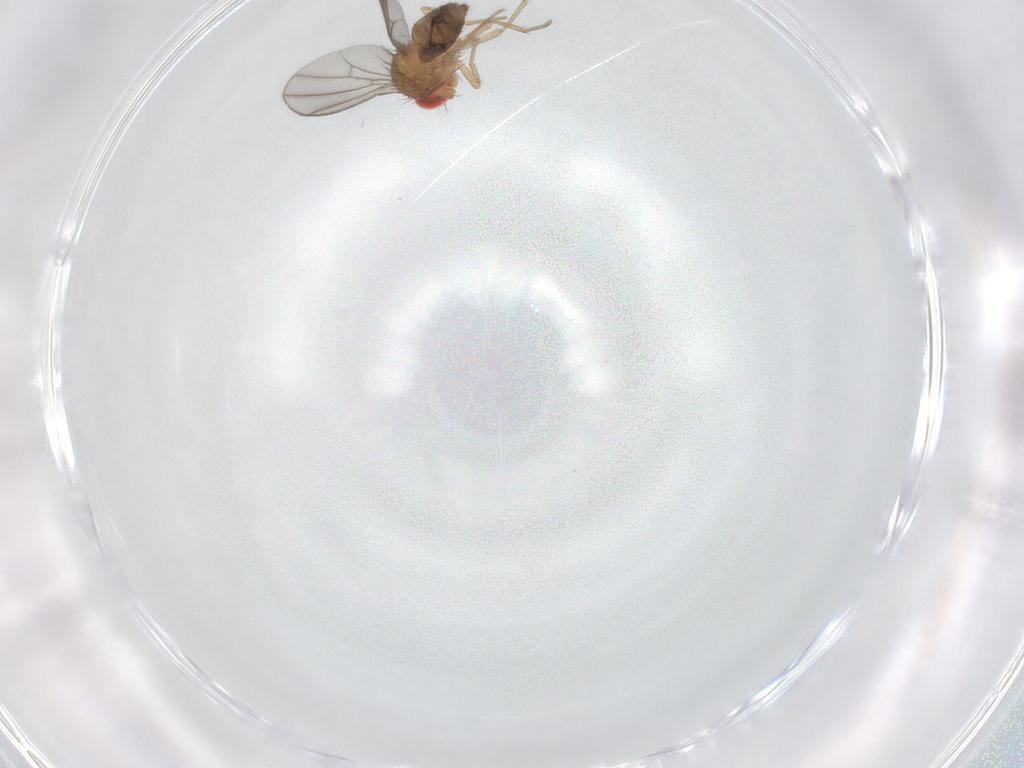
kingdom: Animalia
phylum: Arthropoda
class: Insecta
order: Diptera
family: Drosophilidae
